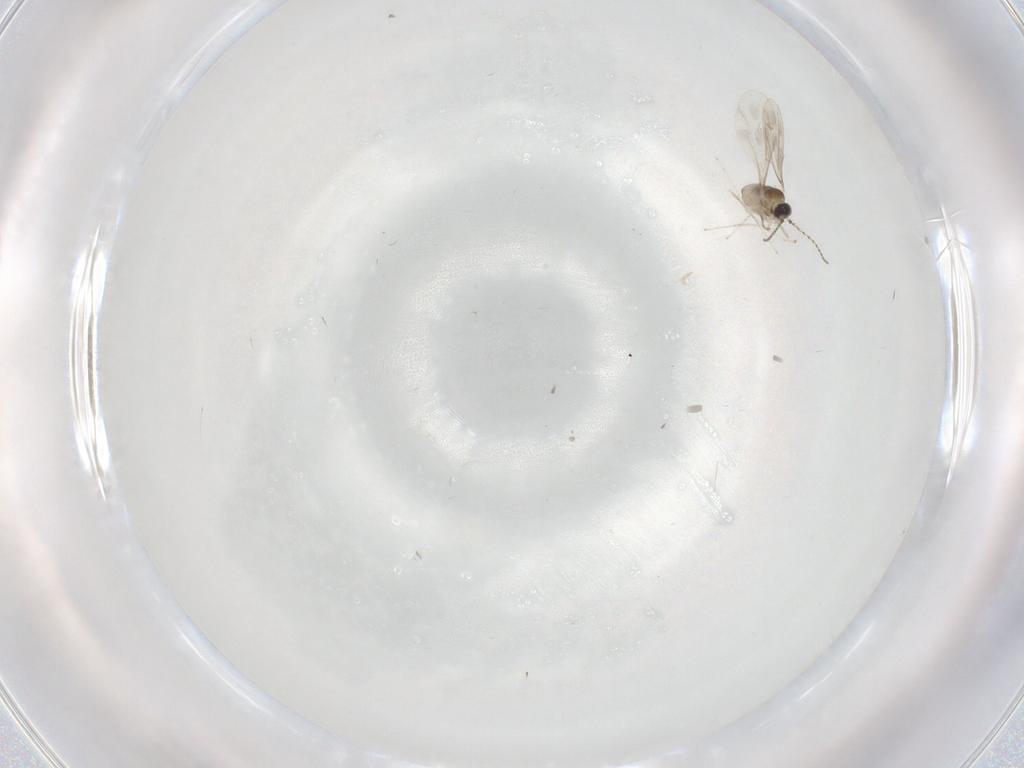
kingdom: Animalia
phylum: Arthropoda
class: Insecta
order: Diptera
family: Cecidomyiidae
